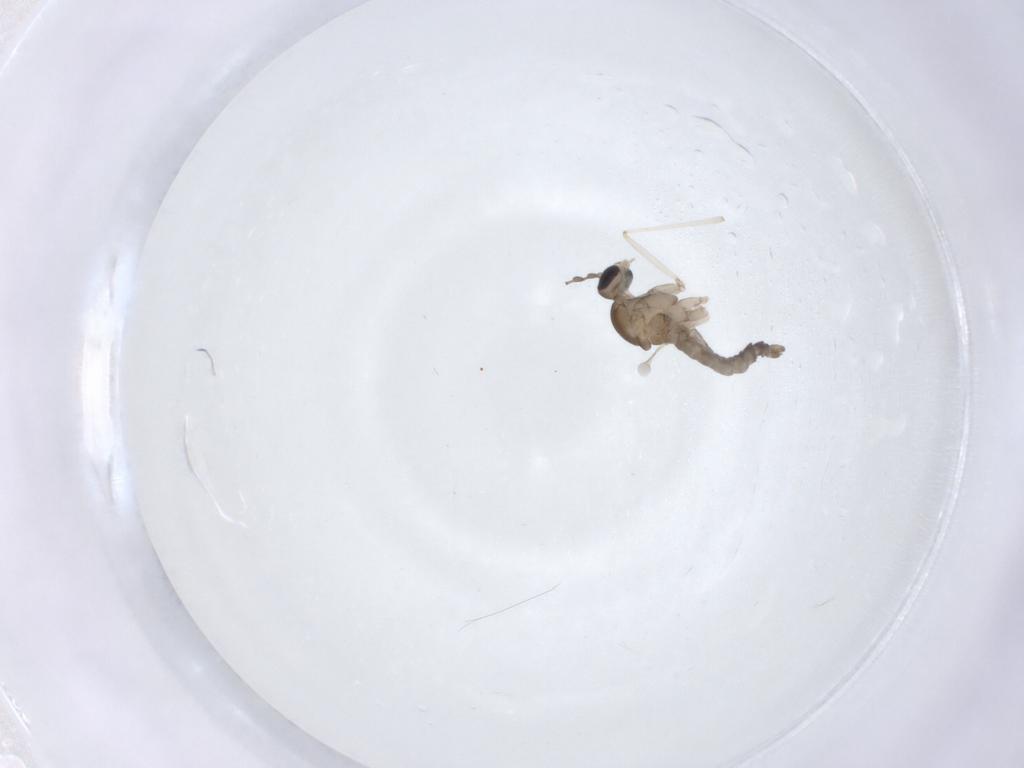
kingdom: Animalia
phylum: Arthropoda
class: Insecta
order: Diptera
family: Cecidomyiidae
